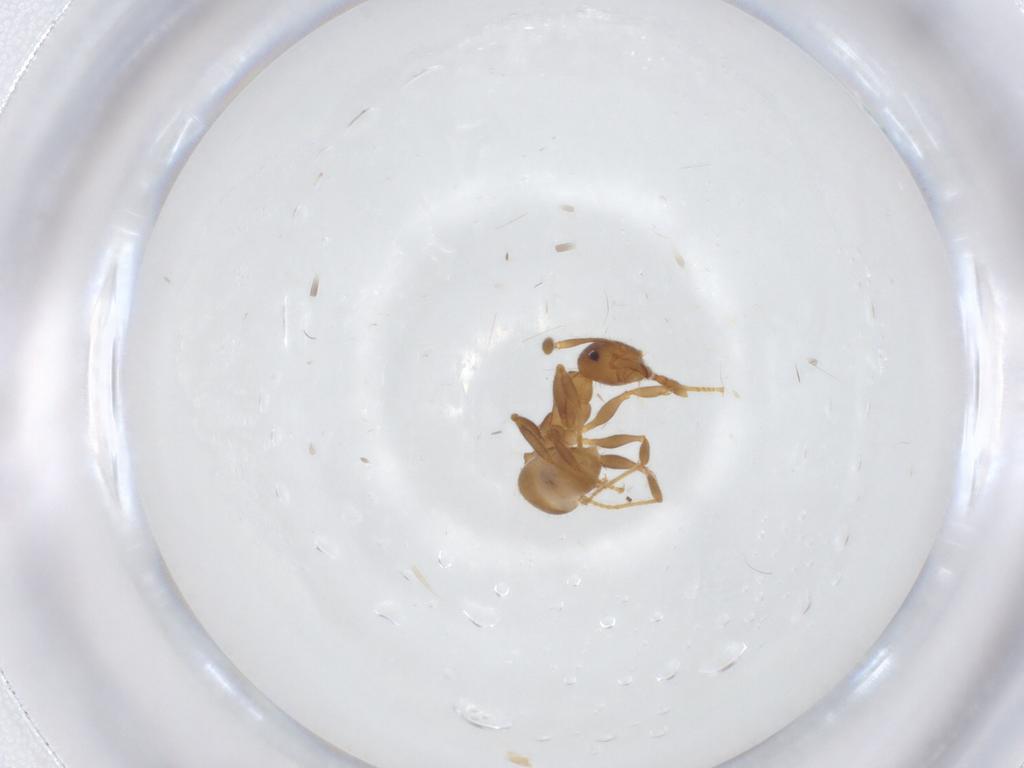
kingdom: Animalia
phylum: Arthropoda
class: Insecta
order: Hymenoptera
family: Formicidae
